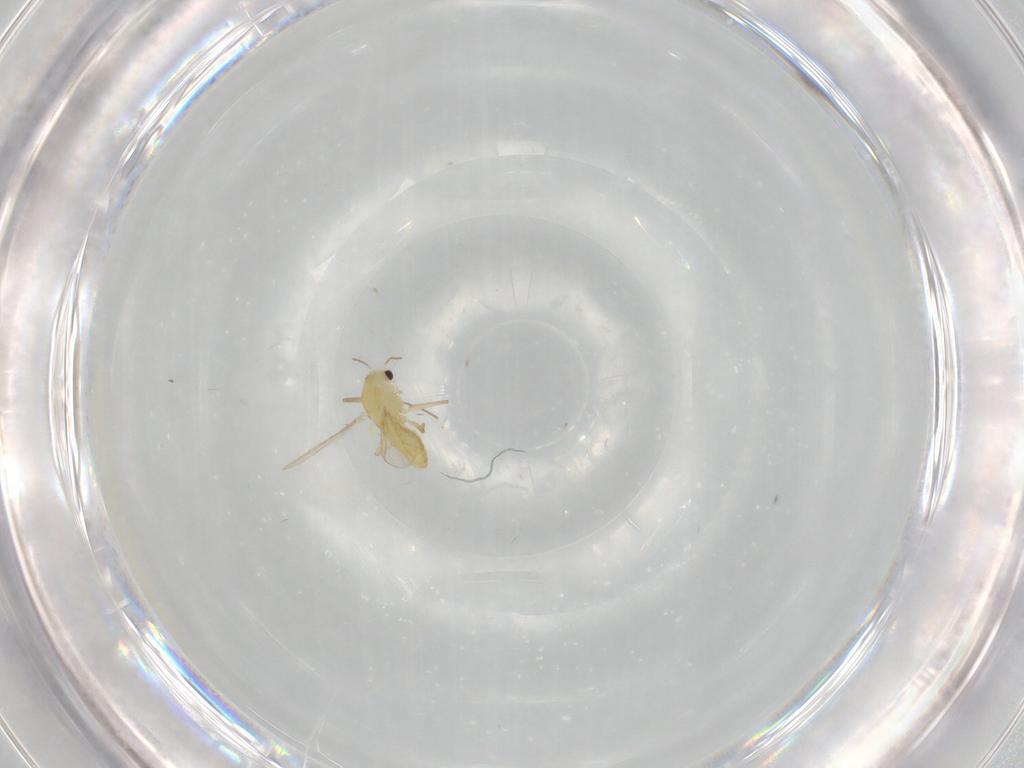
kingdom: Animalia
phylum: Arthropoda
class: Insecta
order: Diptera
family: Chironomidae
